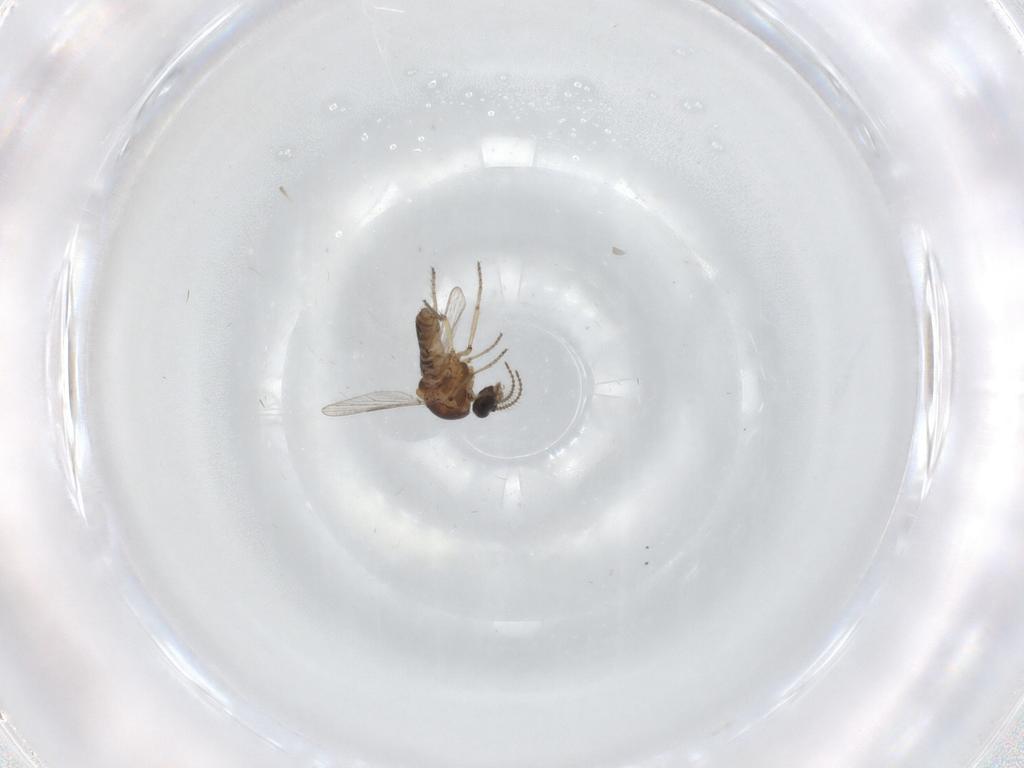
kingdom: Animalia
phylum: Arthropoda
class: Insecta
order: Diptera
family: Ceratopogonidae
